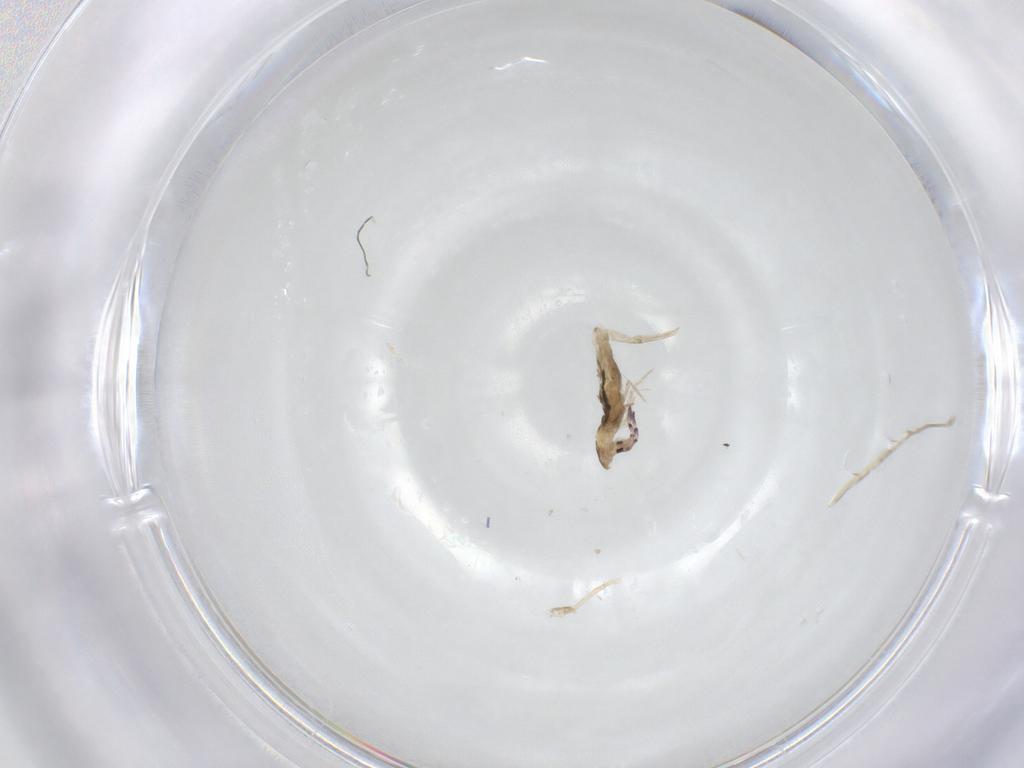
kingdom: Animalia
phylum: Arthropoda
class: Collembola
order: Entomobryomorpha
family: Entomobryidae
